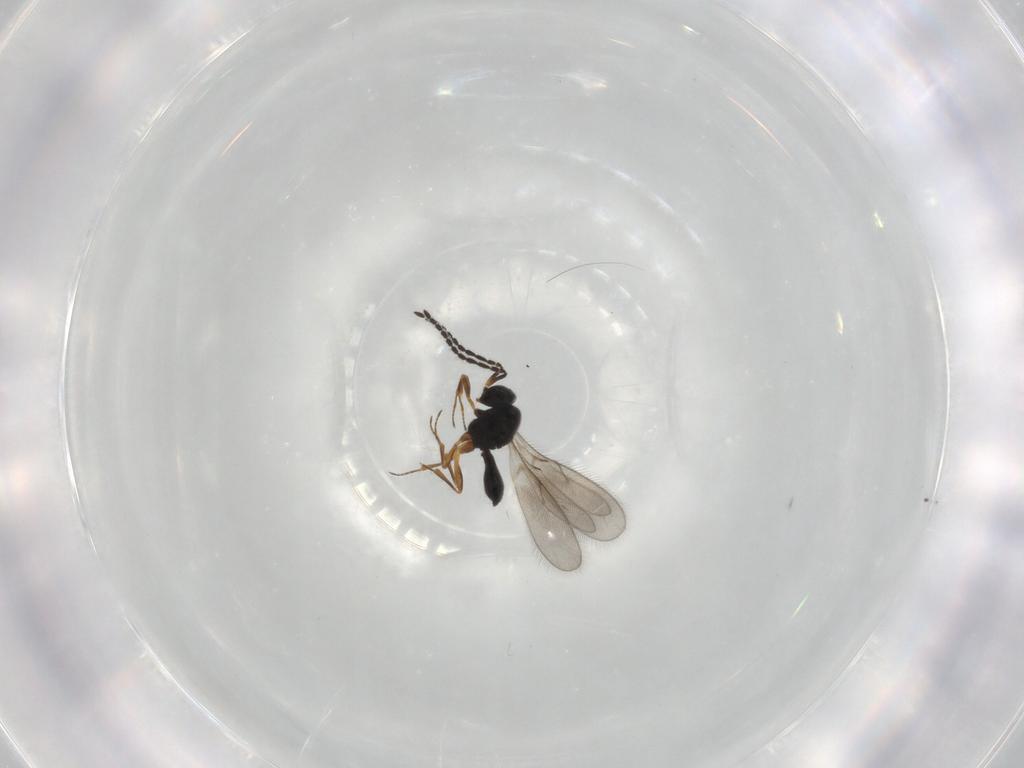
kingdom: Animalia
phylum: Arthropoda
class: Insecta
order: Hymenoptera
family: Scelionidae
